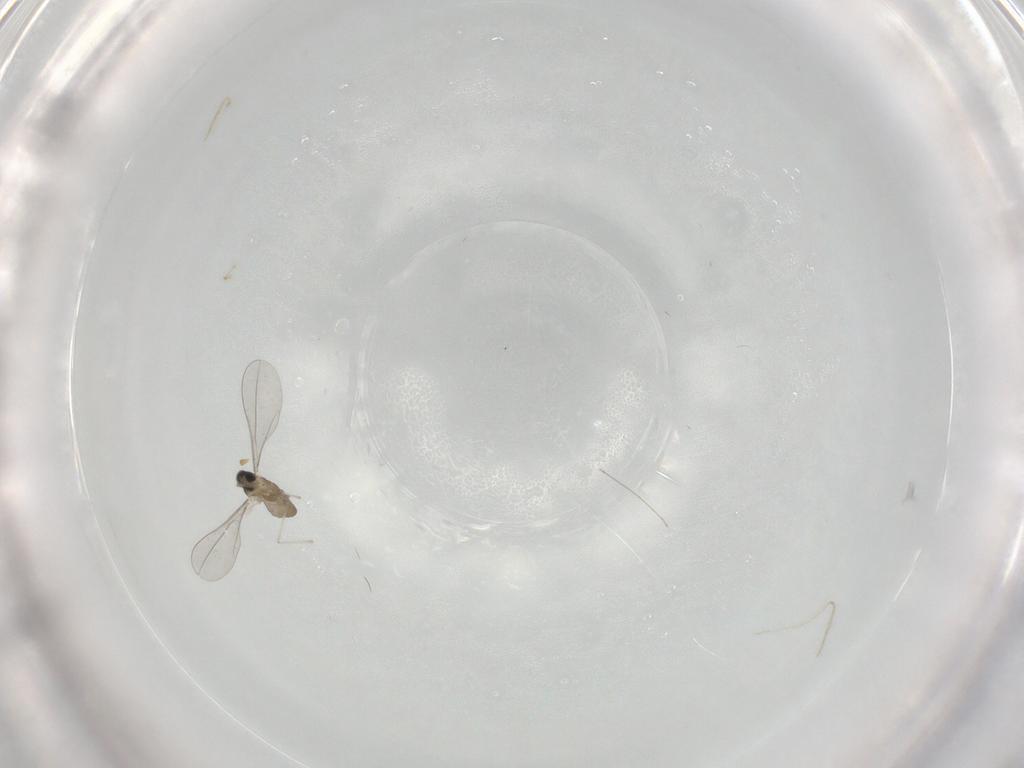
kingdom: Animalia
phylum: Arthropoda
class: Insecta
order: Diptera
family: Cecidomyiidae
